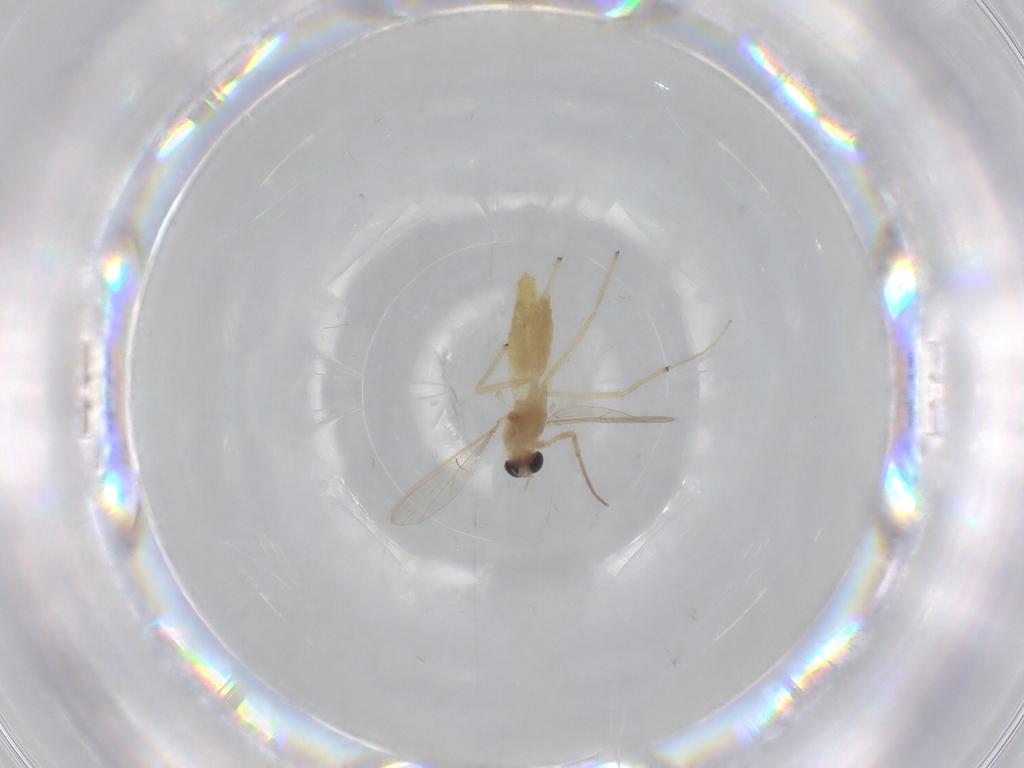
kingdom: Animalia
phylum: Arthropoda
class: Insecta
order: Diptera
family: Chironomidae
